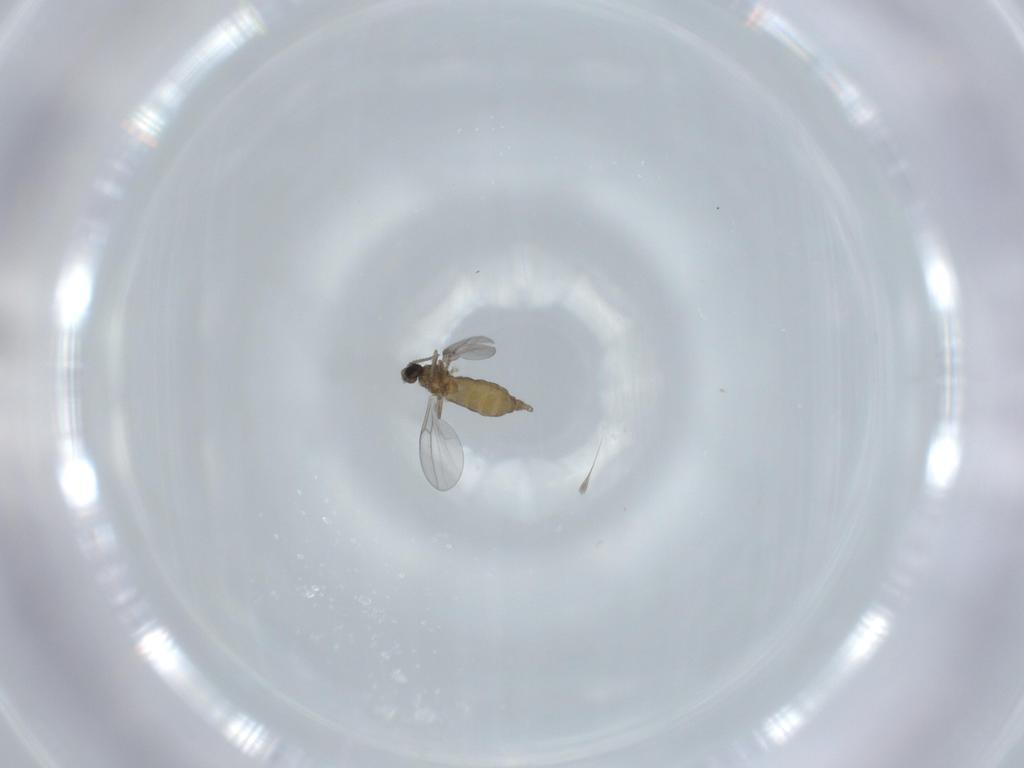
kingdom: Animalia
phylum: Arthropoda
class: Insecta
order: Diptera
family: Cecidomyiidae
